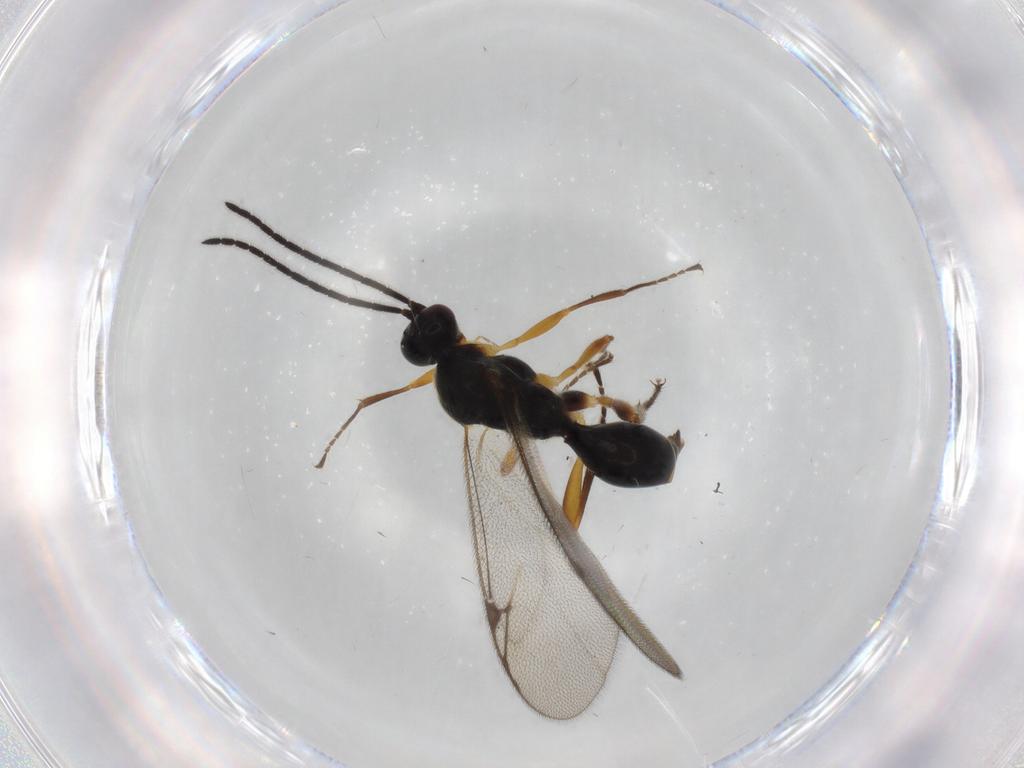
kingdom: Animalia
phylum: Arthropoda
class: Insecta
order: Hymenoptera
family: Proctotrupidae
